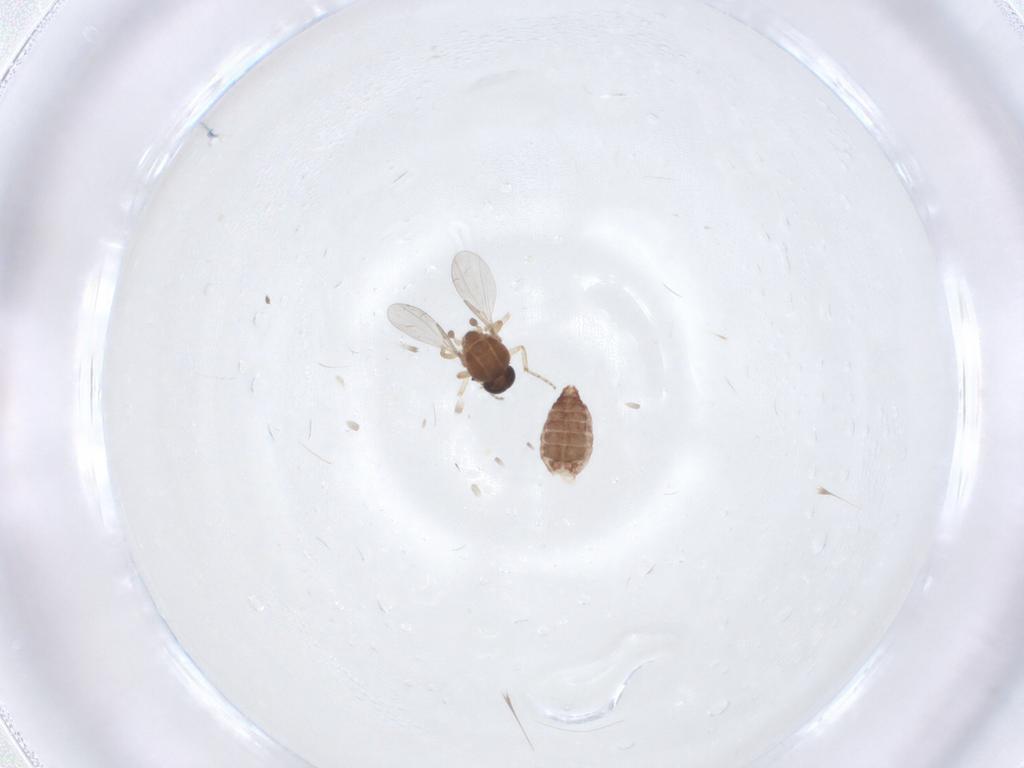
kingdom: Animalia
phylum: Arthropoda
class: Insecta
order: Diptera
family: Ceratopogonidae
